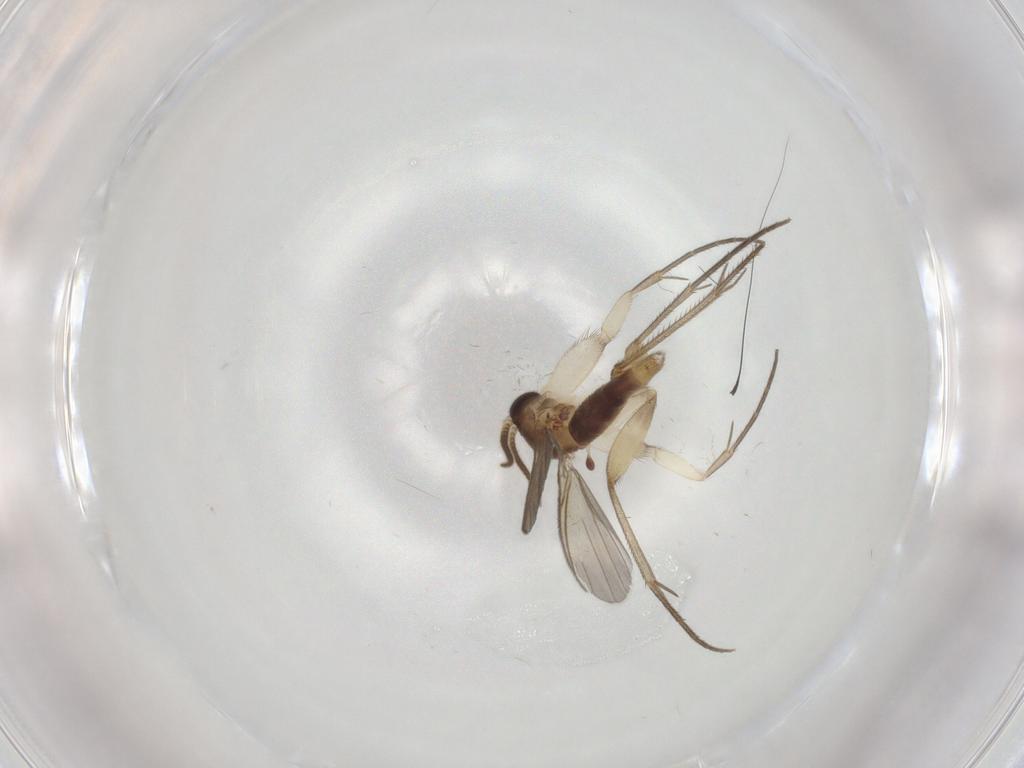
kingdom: Animalia
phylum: Arthropoda
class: Insecta
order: Diptera
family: Mycetophilidae
